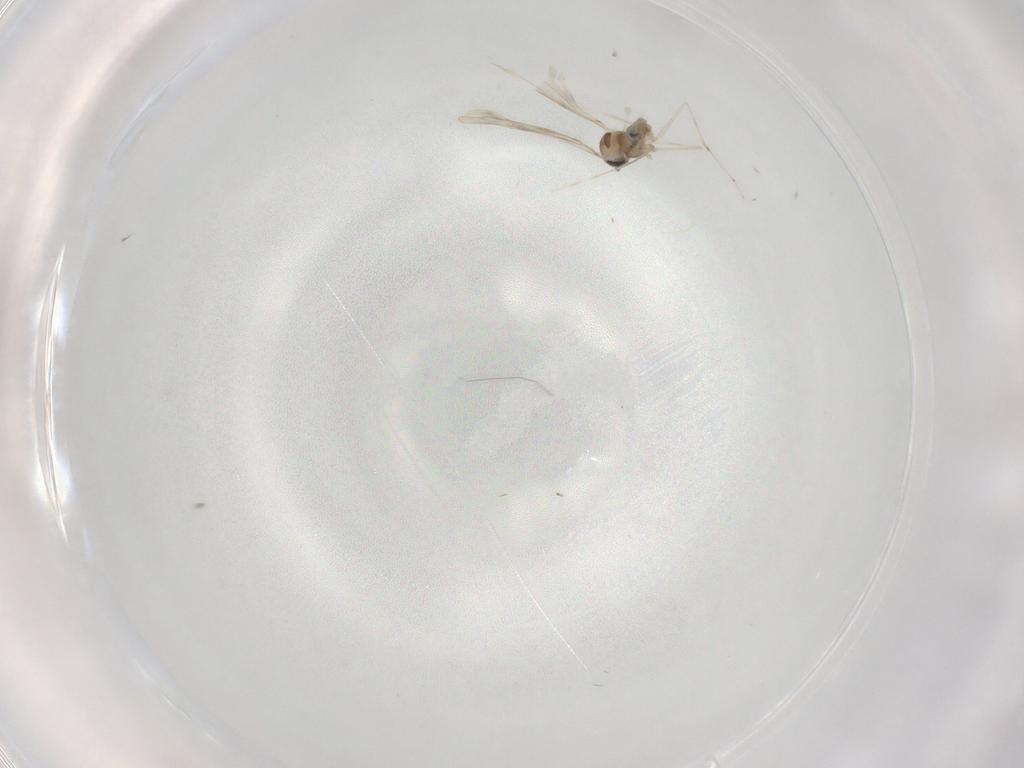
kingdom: Animalia
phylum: Arthropoda
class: Insecta
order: Diptera
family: Cecidomyiidae
